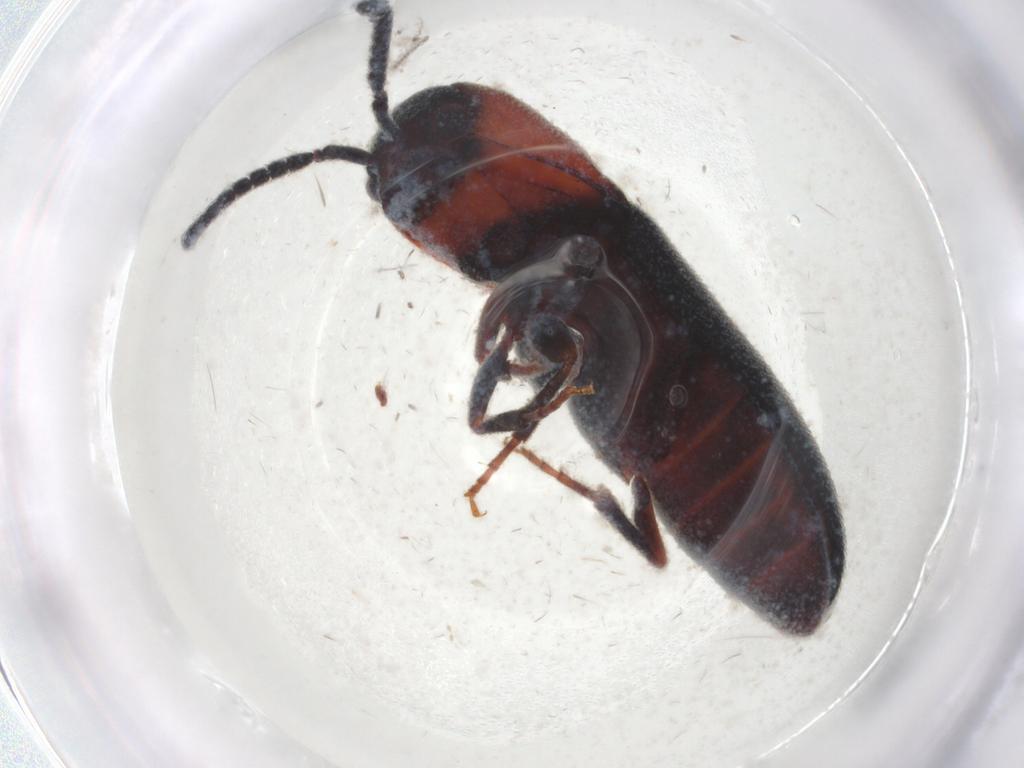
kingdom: Animalia
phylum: Arthropoda
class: Insecta
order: Coleoptera
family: Eucnemidae
